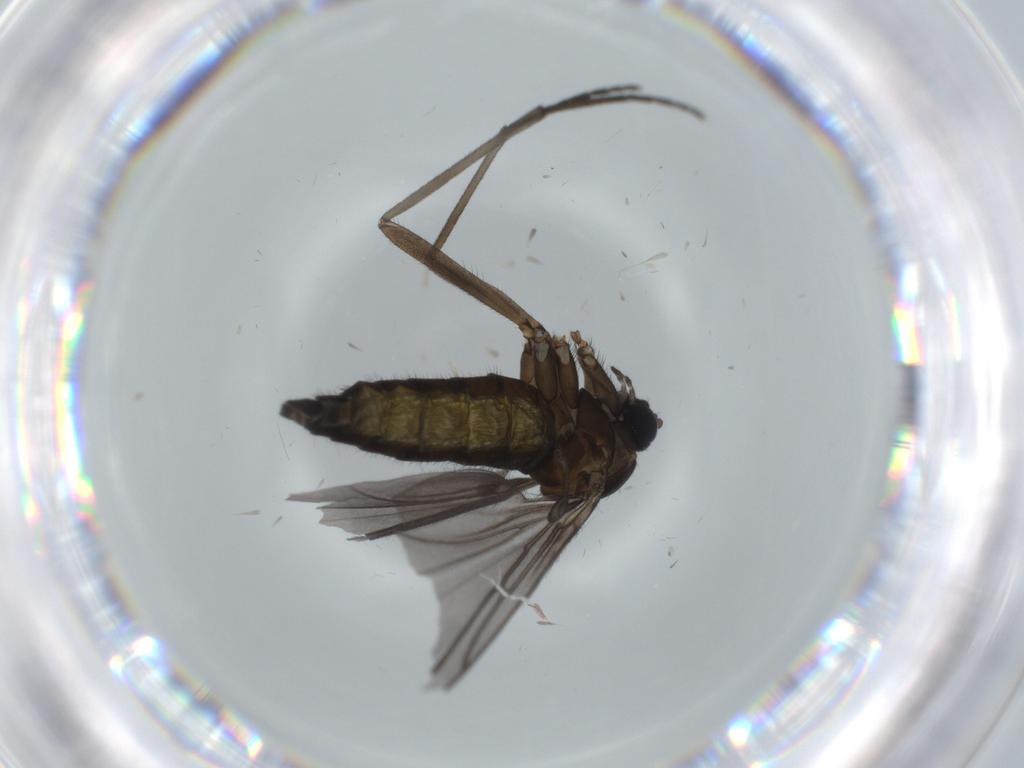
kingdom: Animalia
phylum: Arthropoda
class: Insecta
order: Diptera
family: Sciaridae
